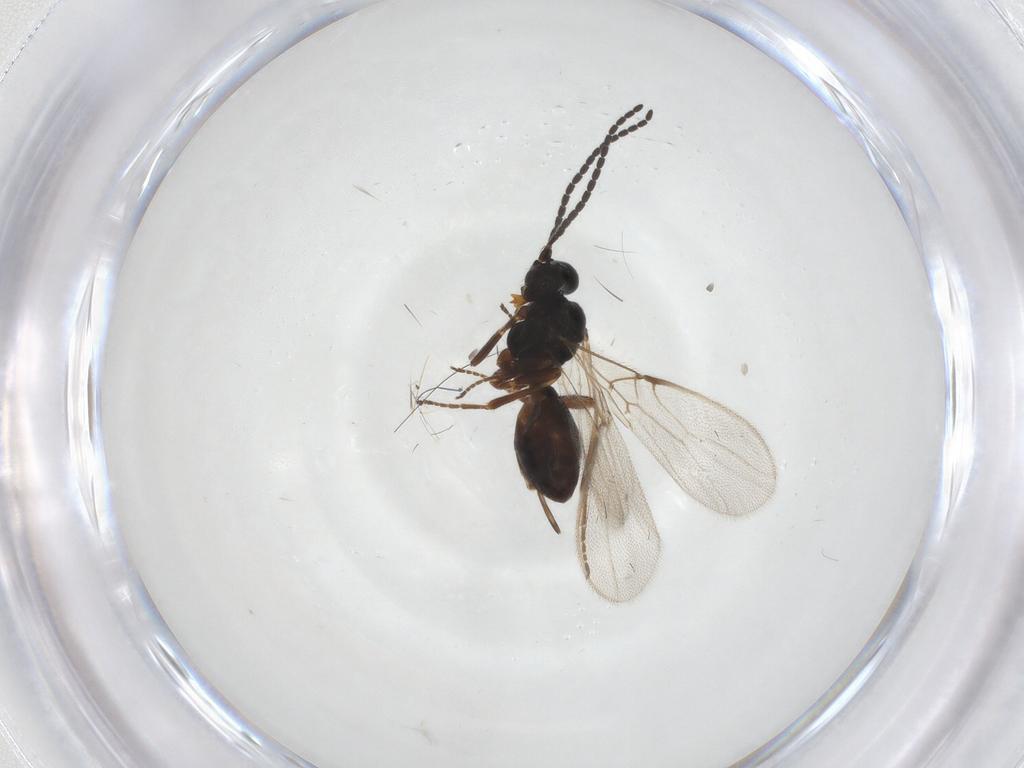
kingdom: Animalia
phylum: Arthropoda
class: Insecta
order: Hymenoptera
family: Braconidae
